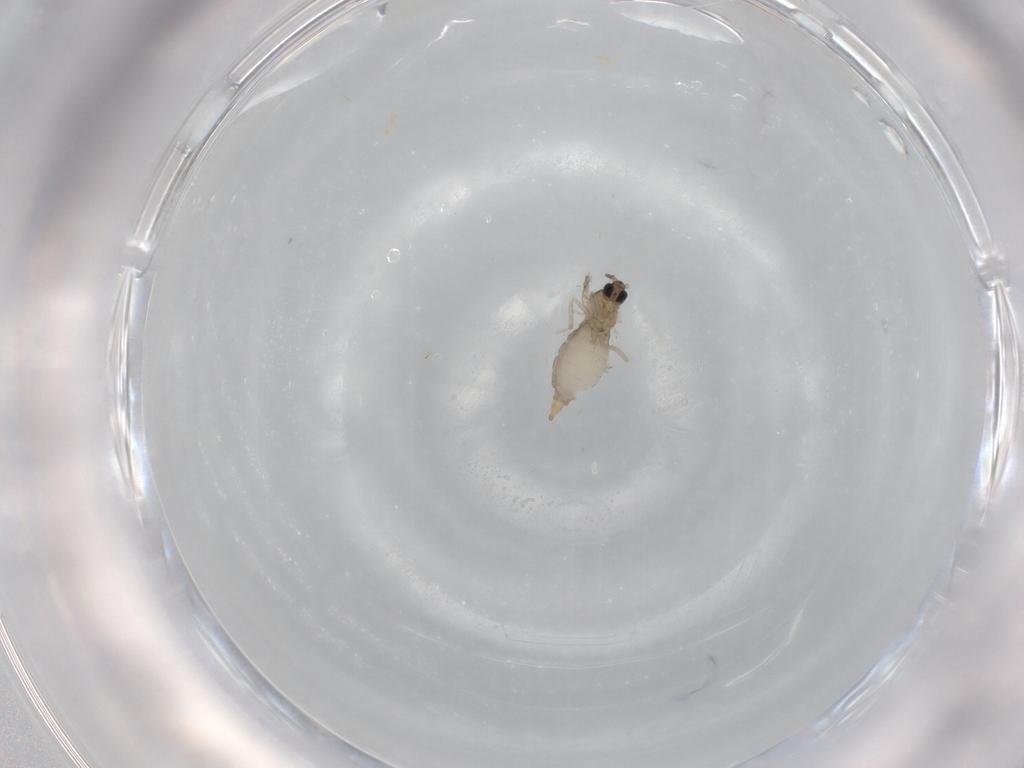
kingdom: Animalia
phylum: Arthropoda
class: Insecta
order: Diptera
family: Cecidomyiidae
